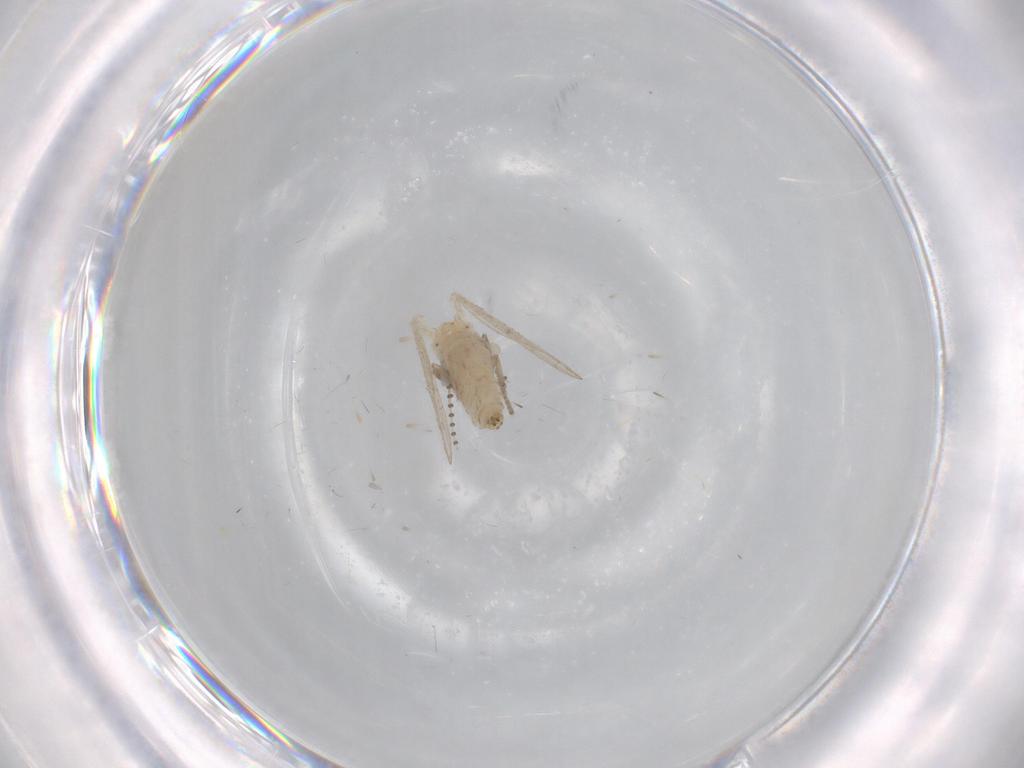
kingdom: Animalia
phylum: Arthropoda
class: Insecta
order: Diptera
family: Psychodidae
